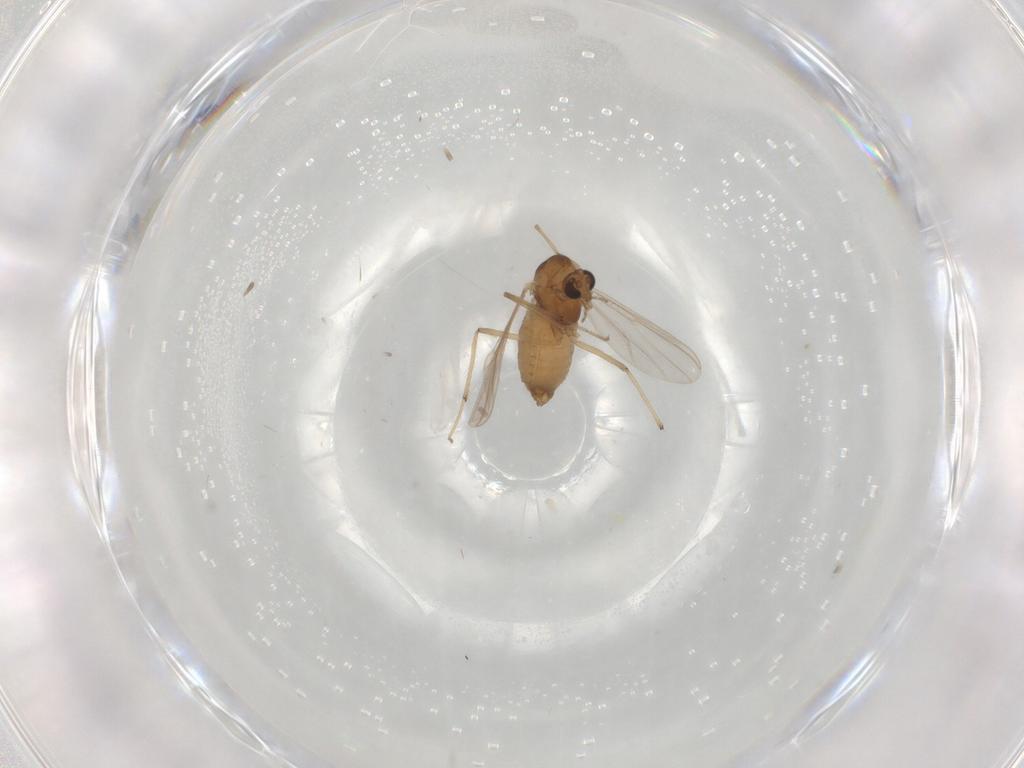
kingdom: Animalia
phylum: Arthropoda
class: Insecta
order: Diptera
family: Chironomidae
